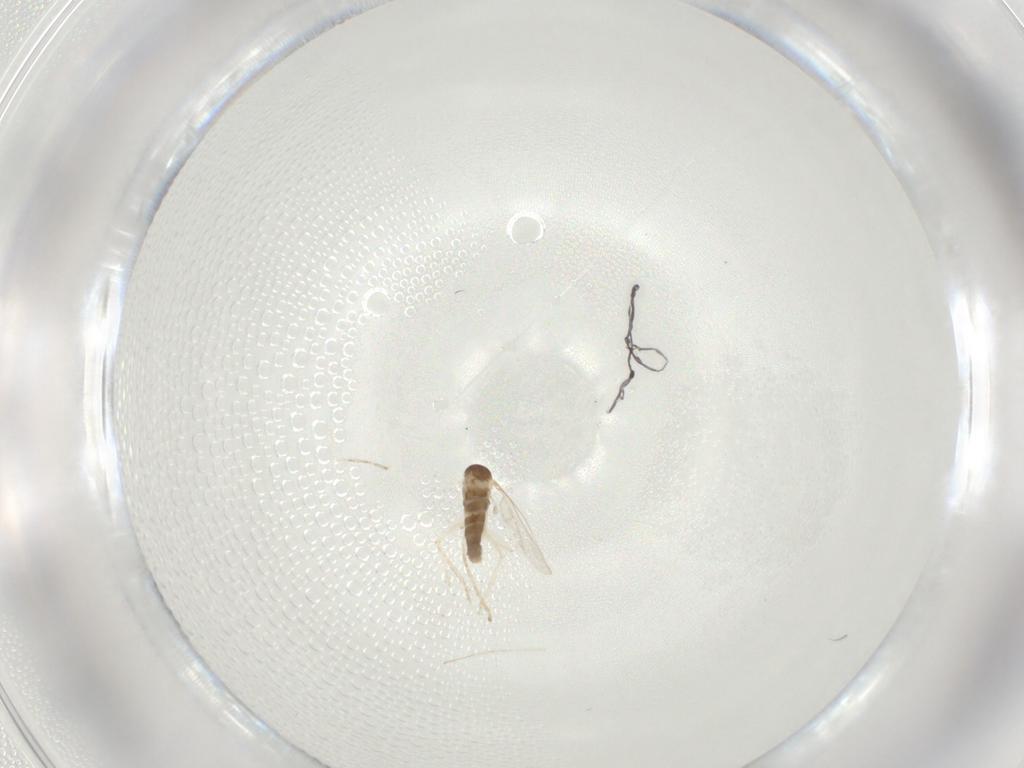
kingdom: Animalia
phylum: Arthropoda
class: Insecta
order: Diptera
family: Cecidomyiidae
